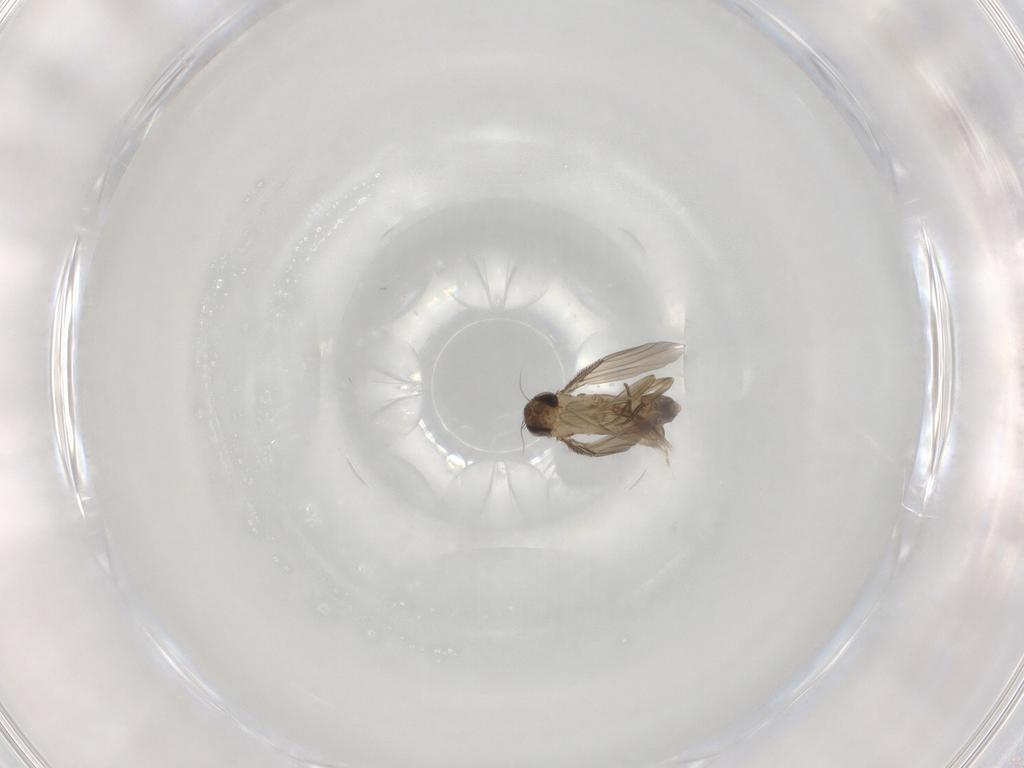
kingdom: Animalia
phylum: Arthropoda
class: Insecta
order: Diptera
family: Phoridae
